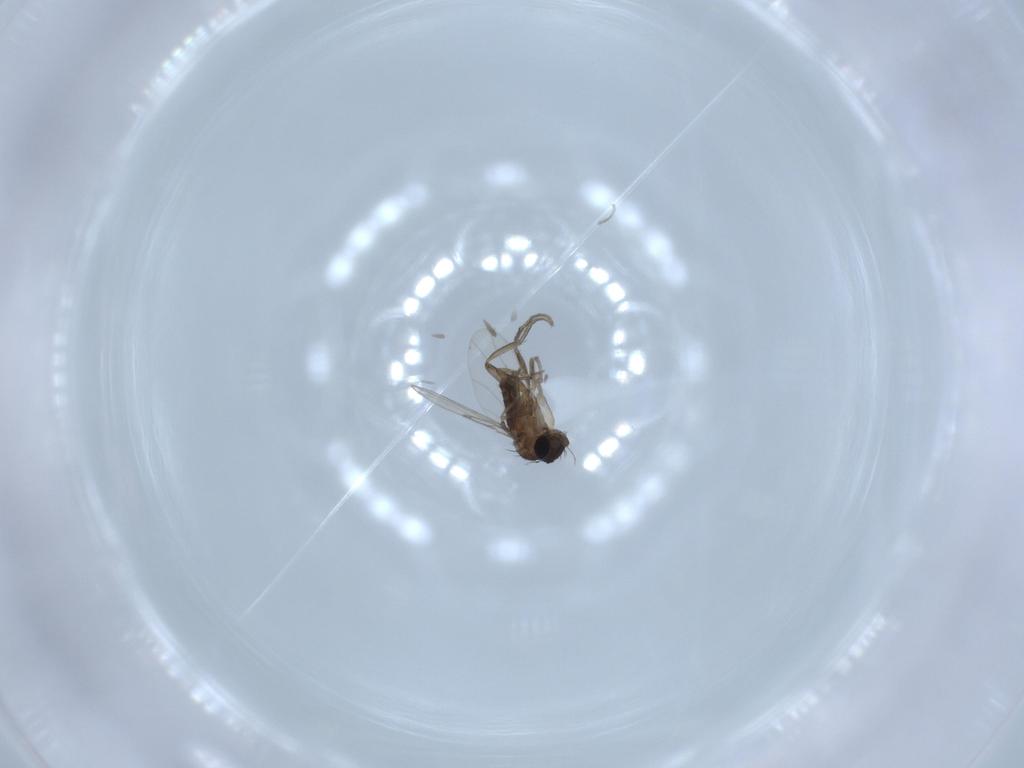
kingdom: Animalia
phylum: Arthropoda
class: Insecta
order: Diptera
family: Phoridae
